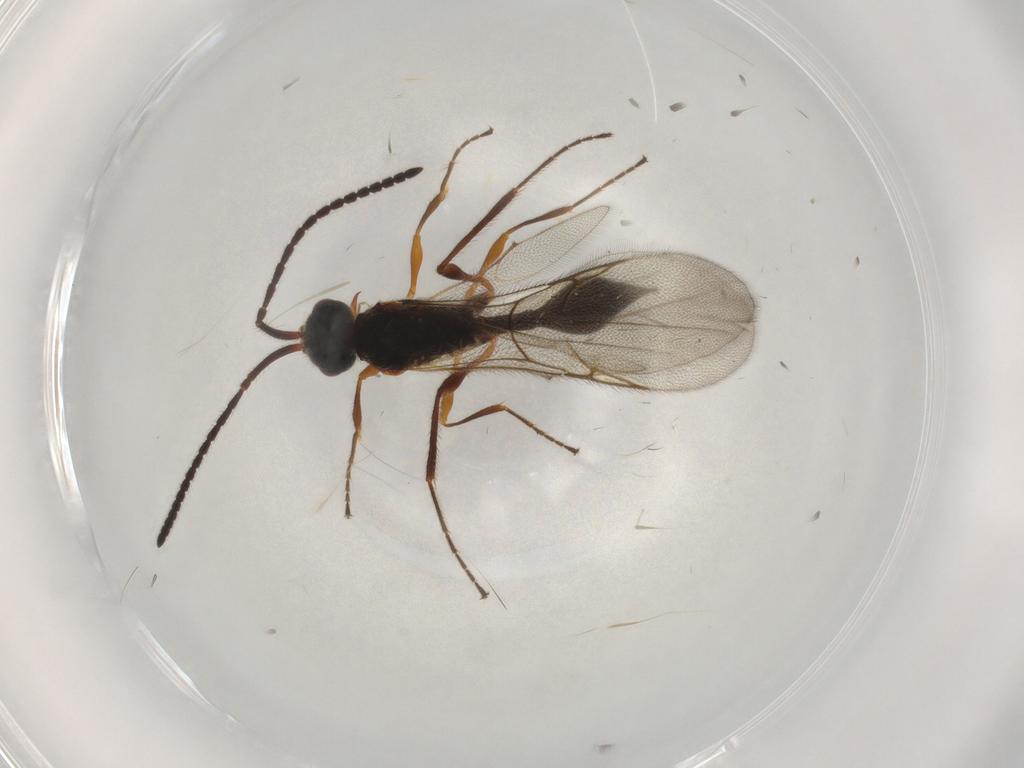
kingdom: Animalia
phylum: Arthropoda
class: Insecta
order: Hymenoptera
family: Diapriidae
